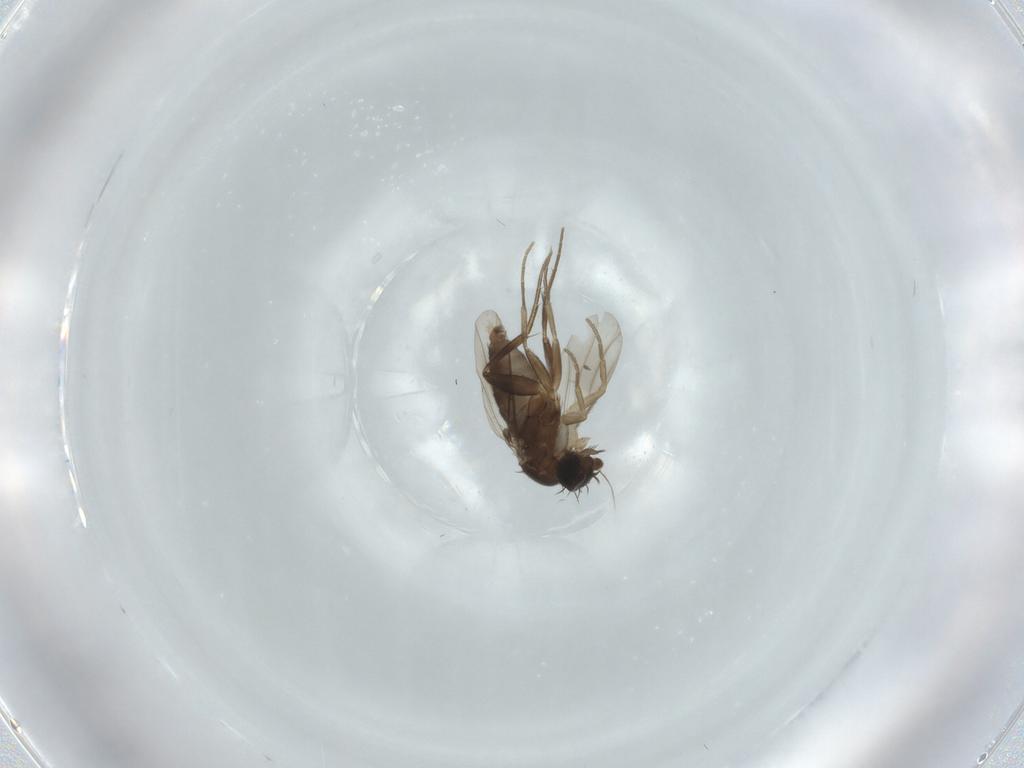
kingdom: Animalia
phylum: Arthropoda
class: Insecta
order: Diptera
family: Phoridae
